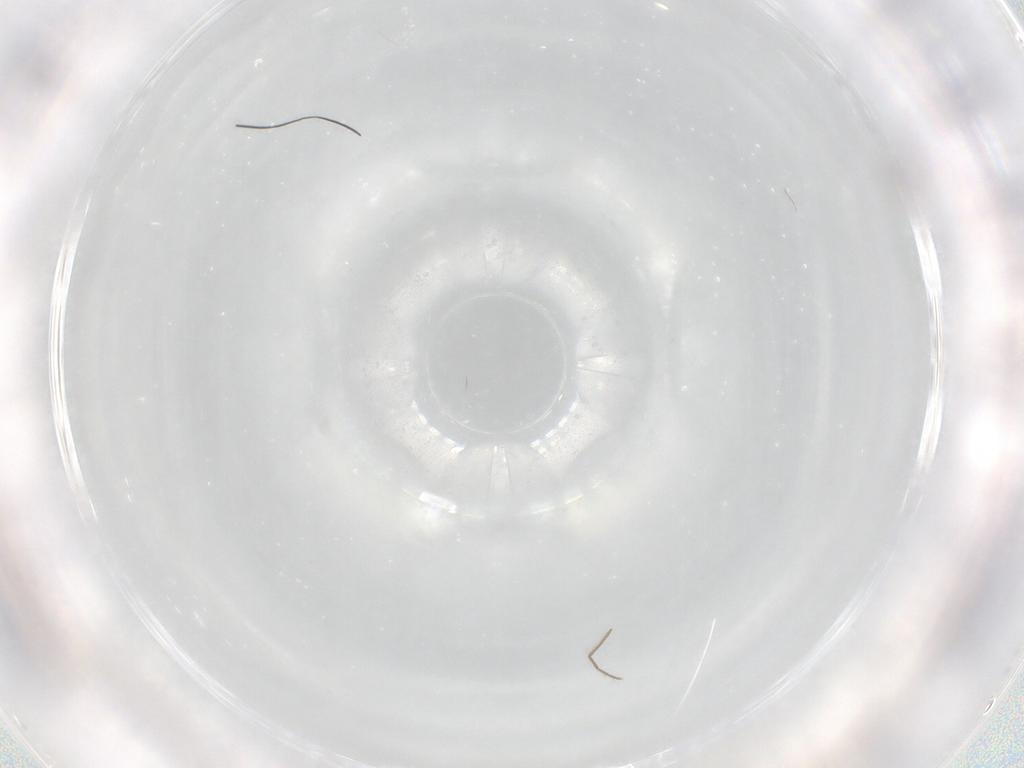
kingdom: Animalia
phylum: Arthropoda
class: Insecta
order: Diptera
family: Chironomidae
